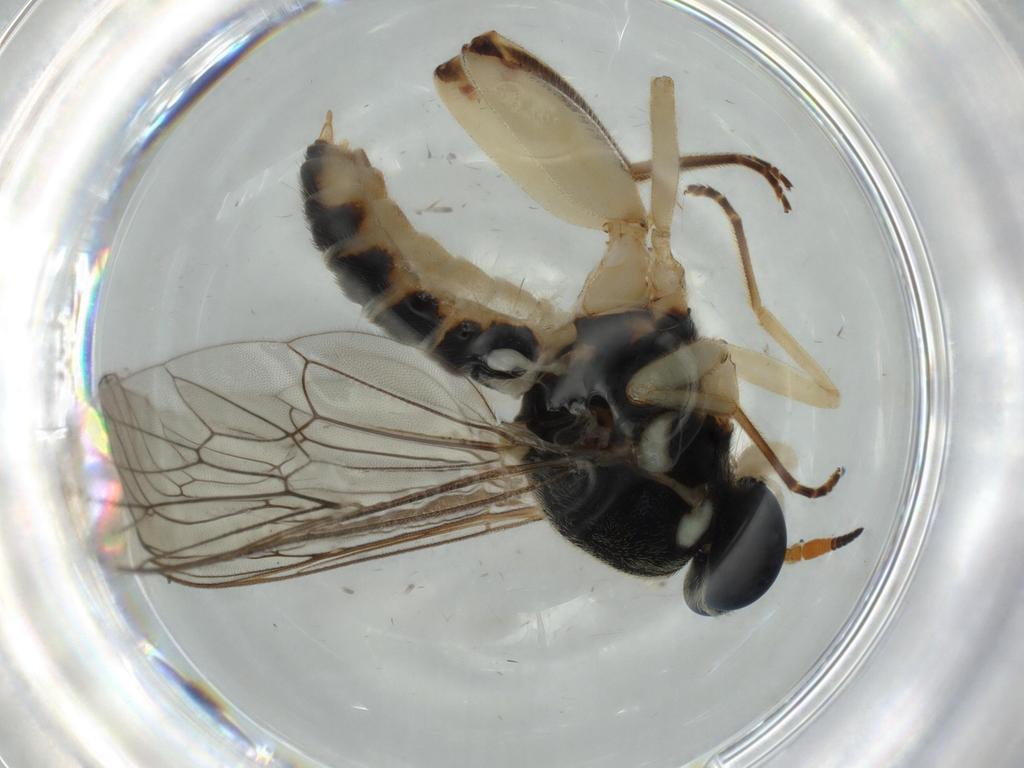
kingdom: Animalia
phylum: Arthropoda
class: Insecta
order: Diptera
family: Milichiidae
